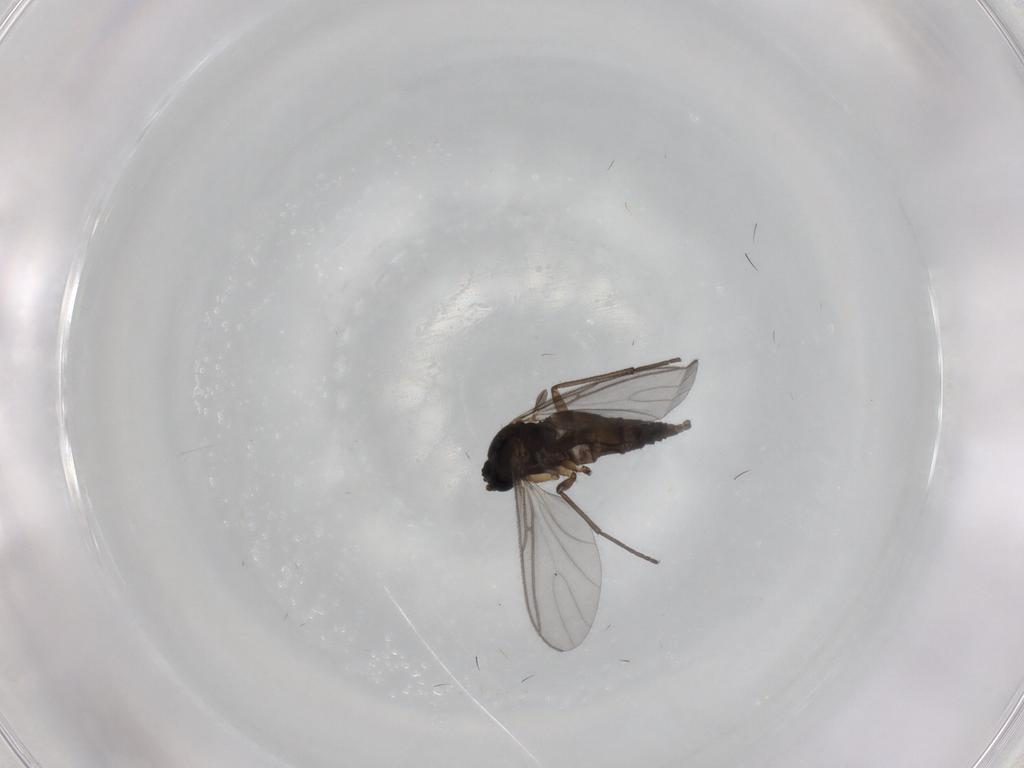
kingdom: Animalia
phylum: Arthropoda
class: Insecta
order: Diptera
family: Sciaridae
